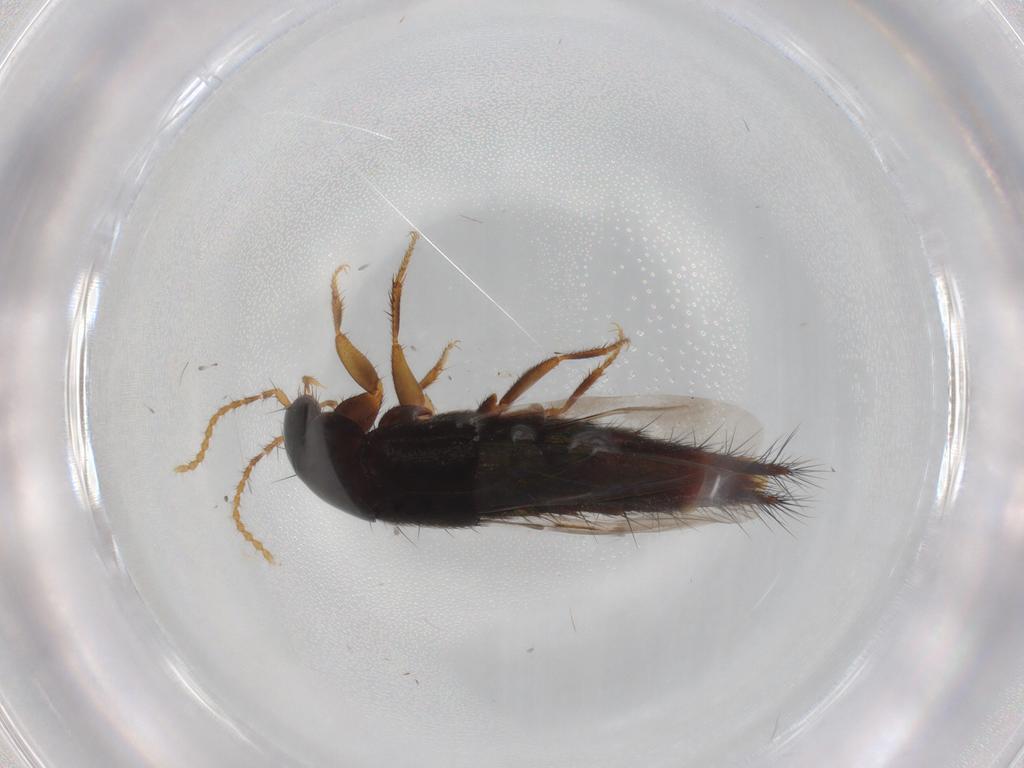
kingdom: Animalia
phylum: Arthropoda
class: Insecta
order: Coleoptera
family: Staphylinidae
